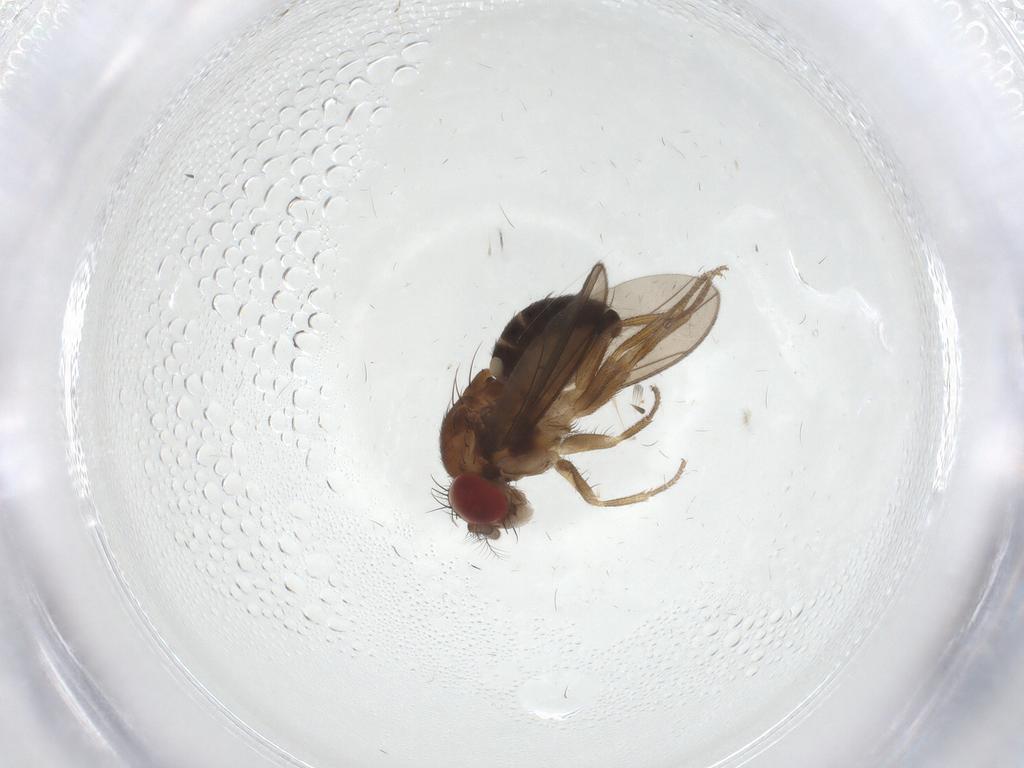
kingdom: Animalia
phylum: Arthropoda
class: Insecta
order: Diptera
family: Drosophilidae
